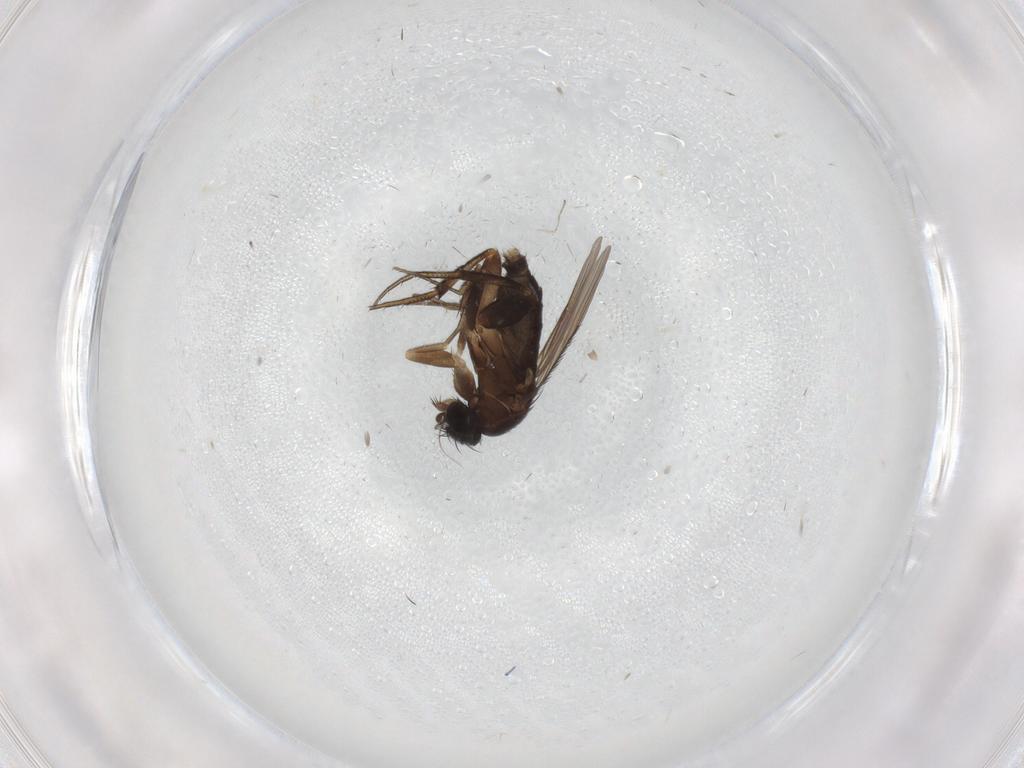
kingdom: Animalia
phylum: Arthropoda
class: Insecta
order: Diptera
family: Phoridae
